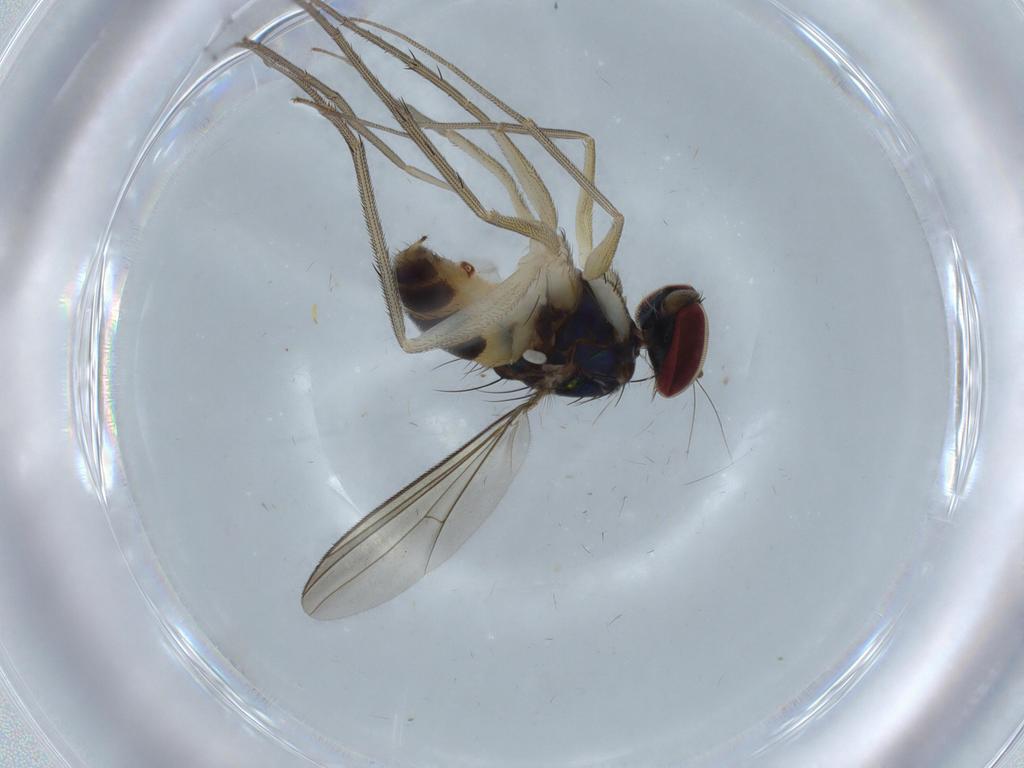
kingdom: Animalia
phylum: Arthropoda
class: Insecta
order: Diptera
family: Dolichopodidae
